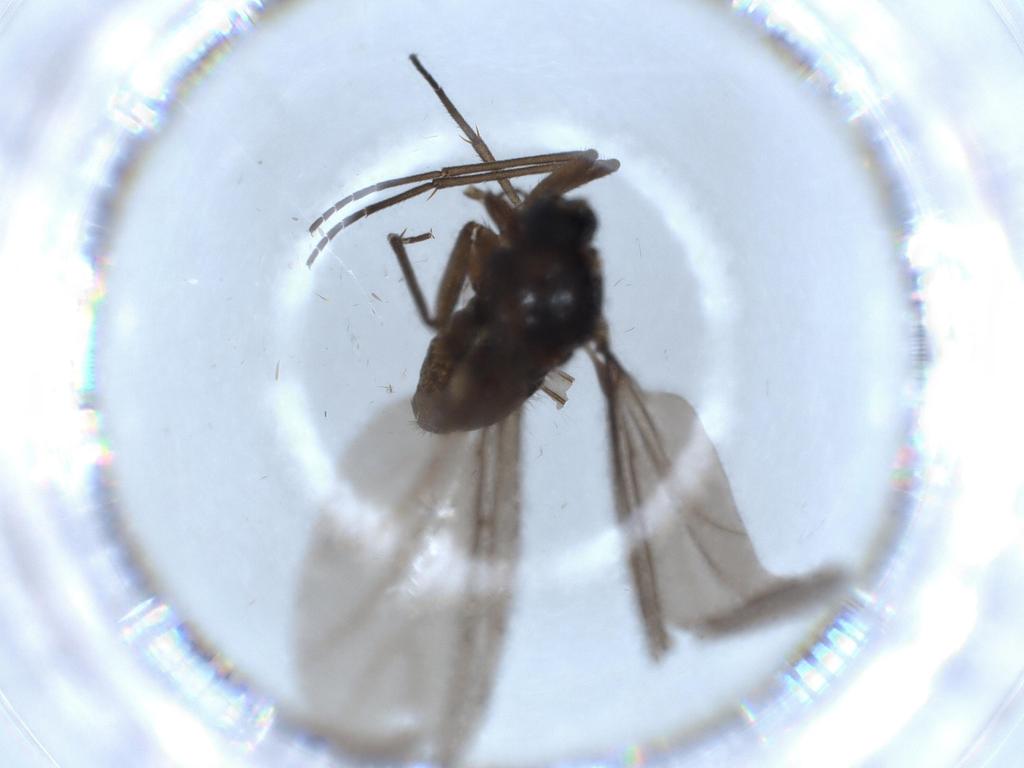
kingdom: Animalia
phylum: Arthropoda
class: Insecta
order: Diptera
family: Sciaridae
